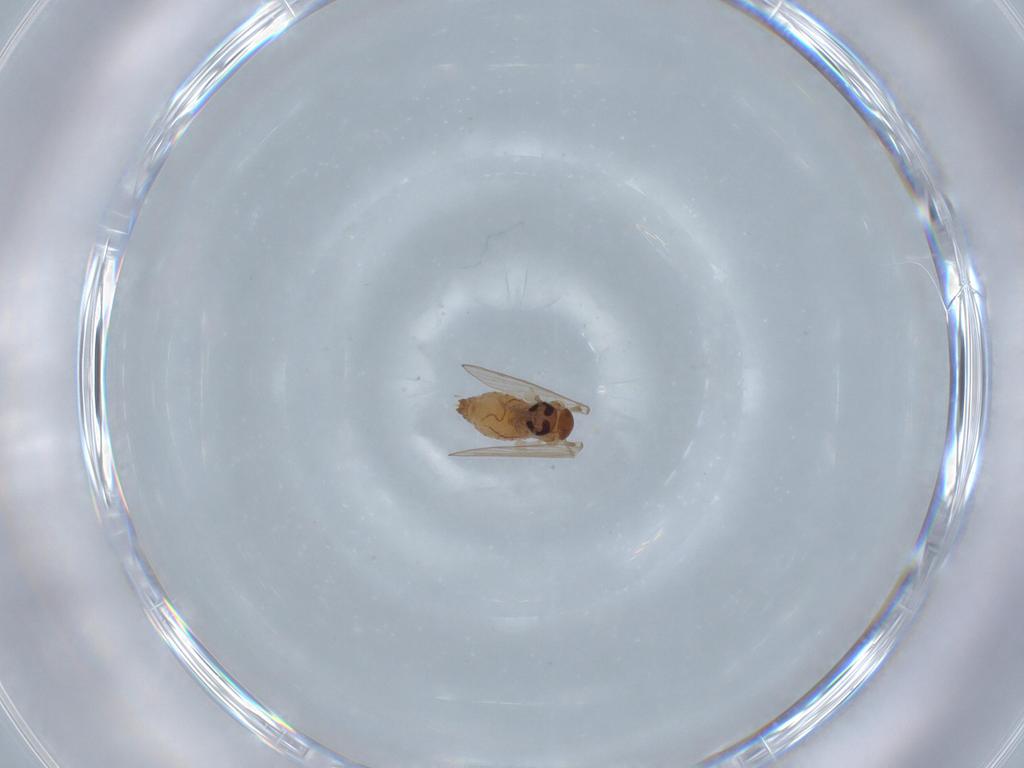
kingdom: Animalia
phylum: Arthropoda
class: Insecta
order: Diptera
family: Psychodidae
